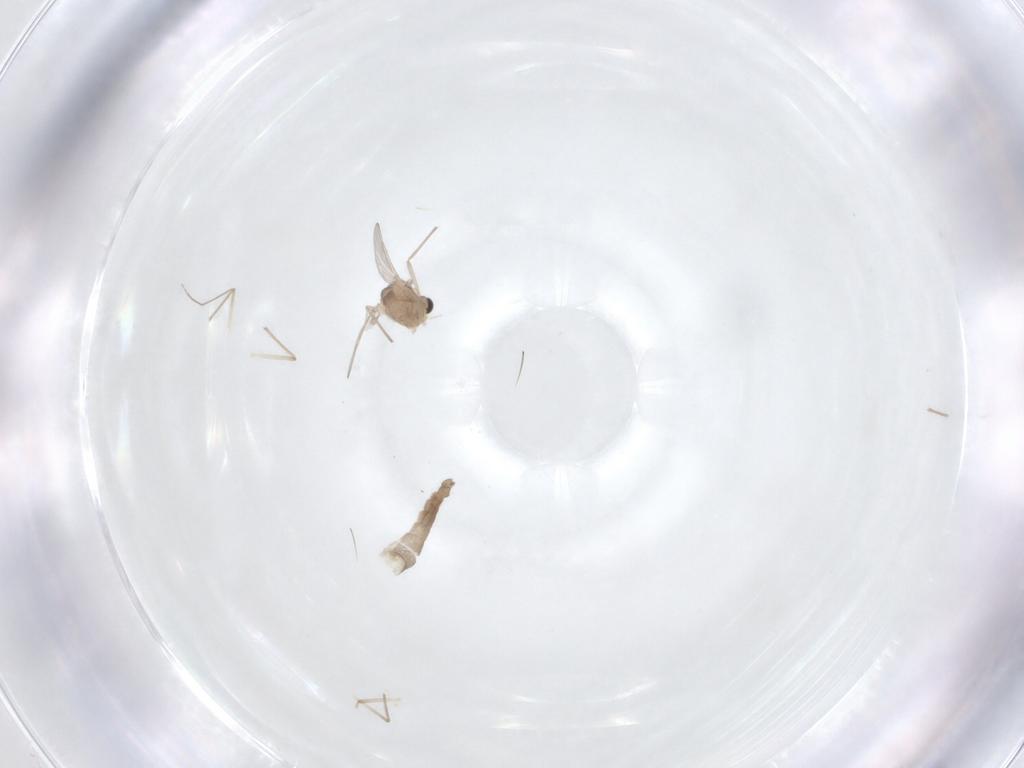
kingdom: Animalia
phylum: Arthropoda
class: Insecta
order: Diptera
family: Chironomidae
